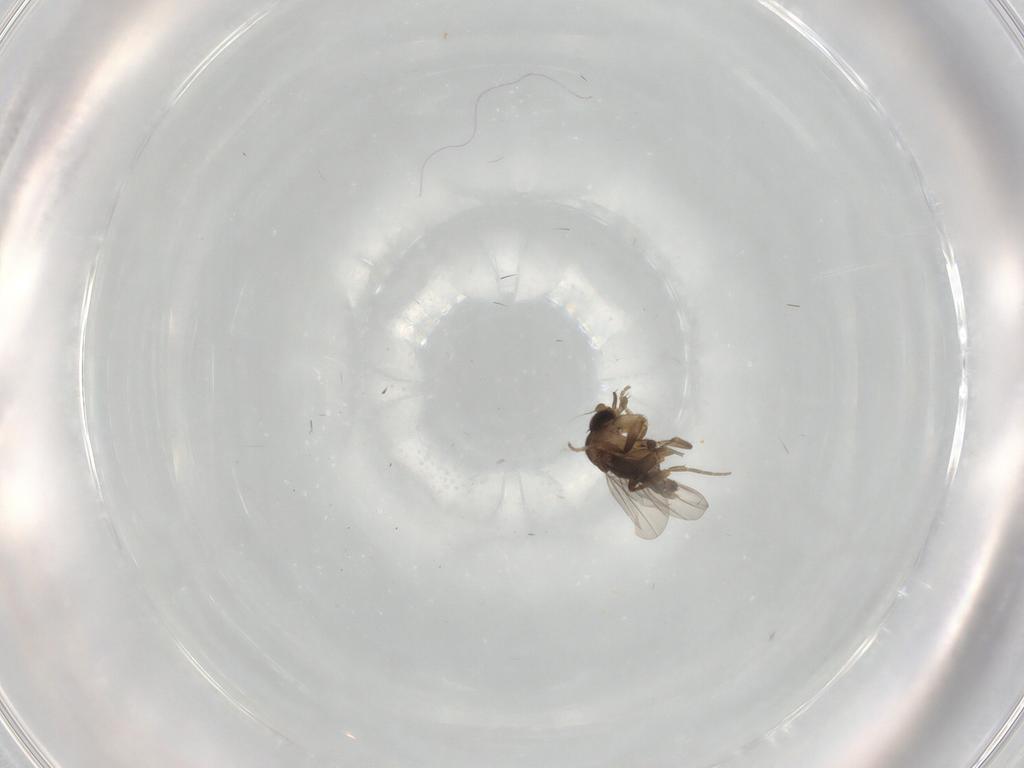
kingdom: Animalia
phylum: Arthropoda
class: Insecta
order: Diptera
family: Phoridae
